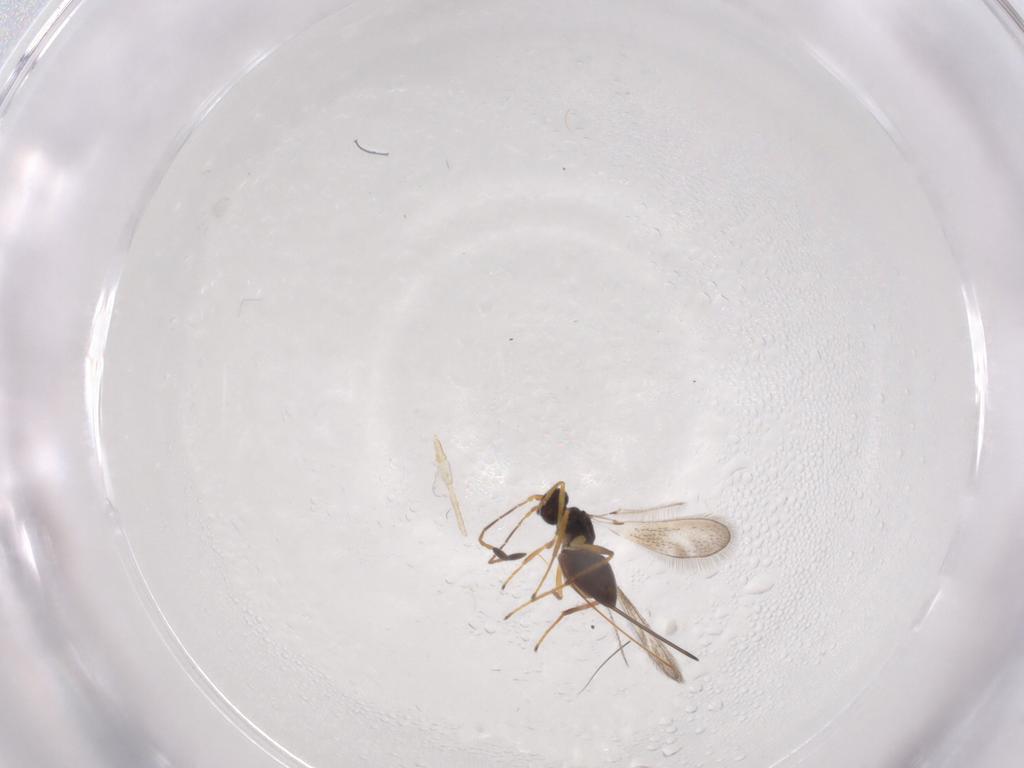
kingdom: Animalia
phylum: Arthropoda
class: Insecta
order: Hymenoptera
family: Mymaridae
